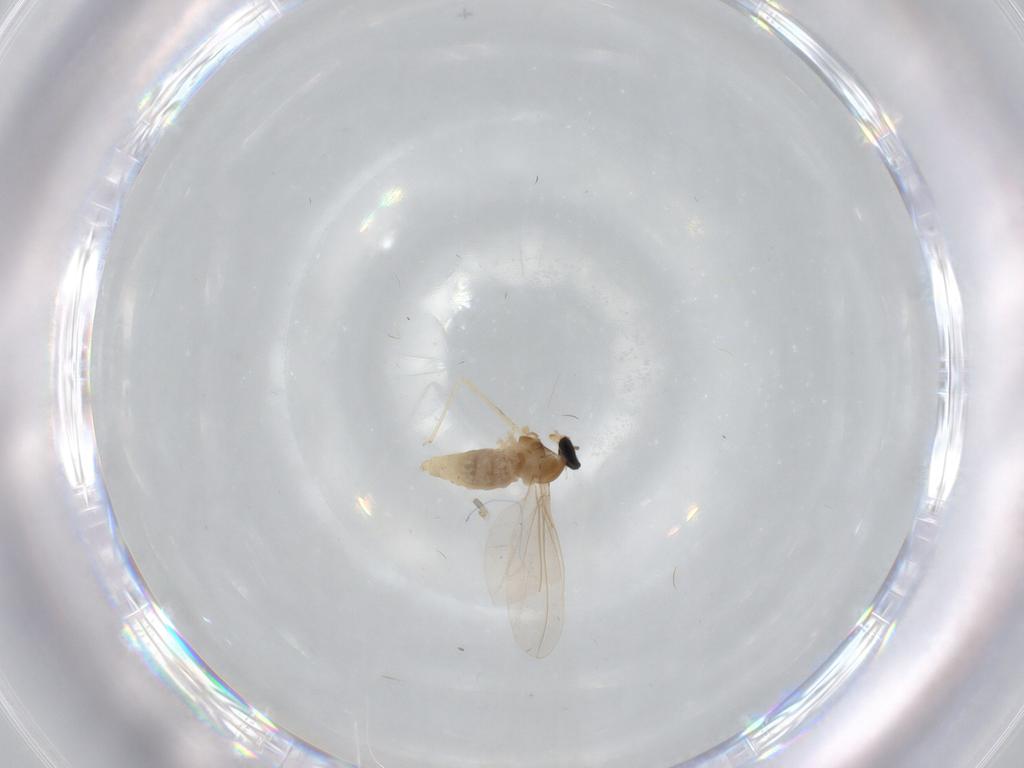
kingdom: Animalia
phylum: Arthropoda
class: Insecta
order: Diptera
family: Cecidomyiidae
